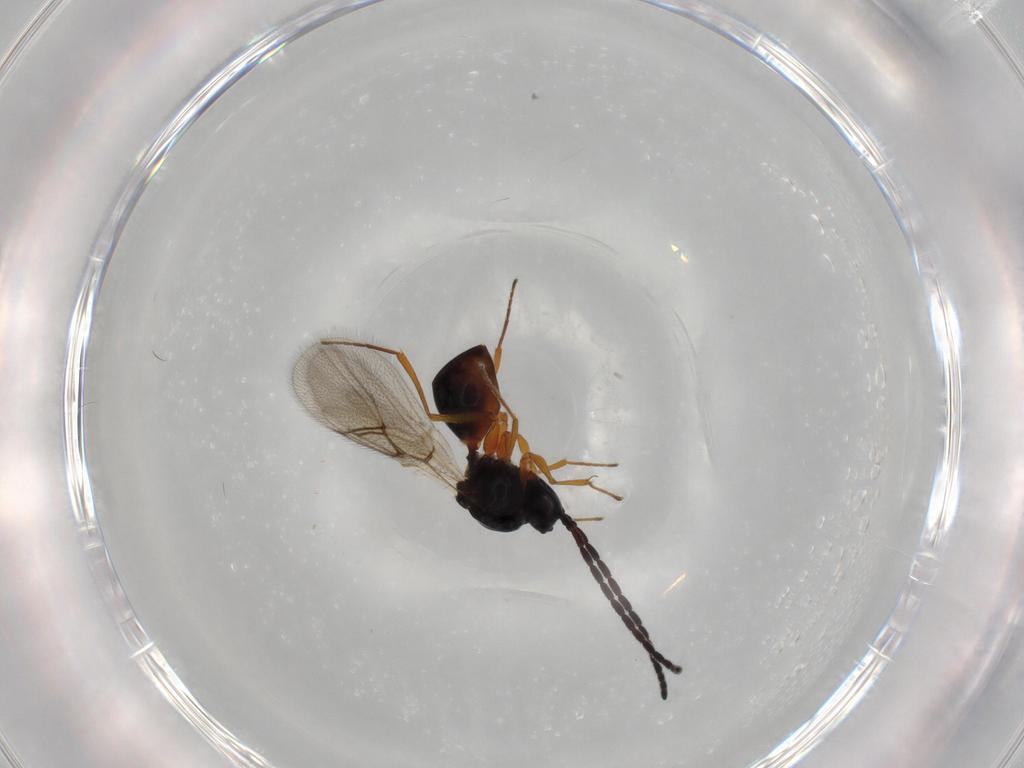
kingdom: Animalia
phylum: Arthropoda
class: Insecta
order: Hymenoptera
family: Figitidae
